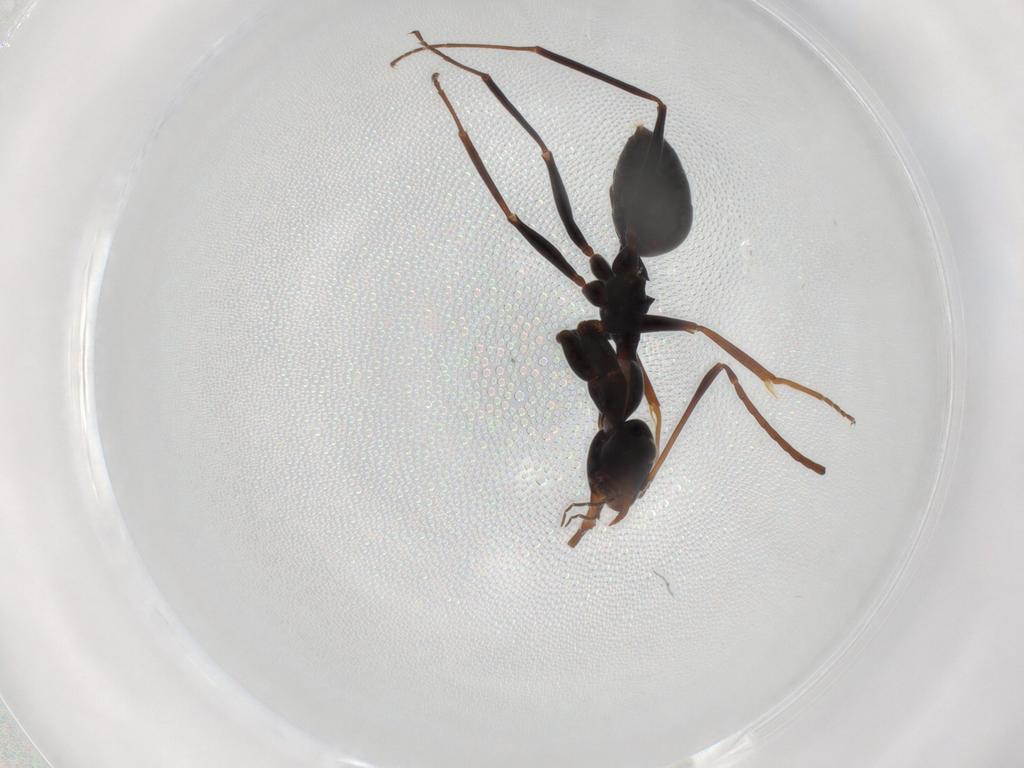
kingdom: Animalia
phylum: Arthropoda
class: Insecta
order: Hymenoptera
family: Formicidae
